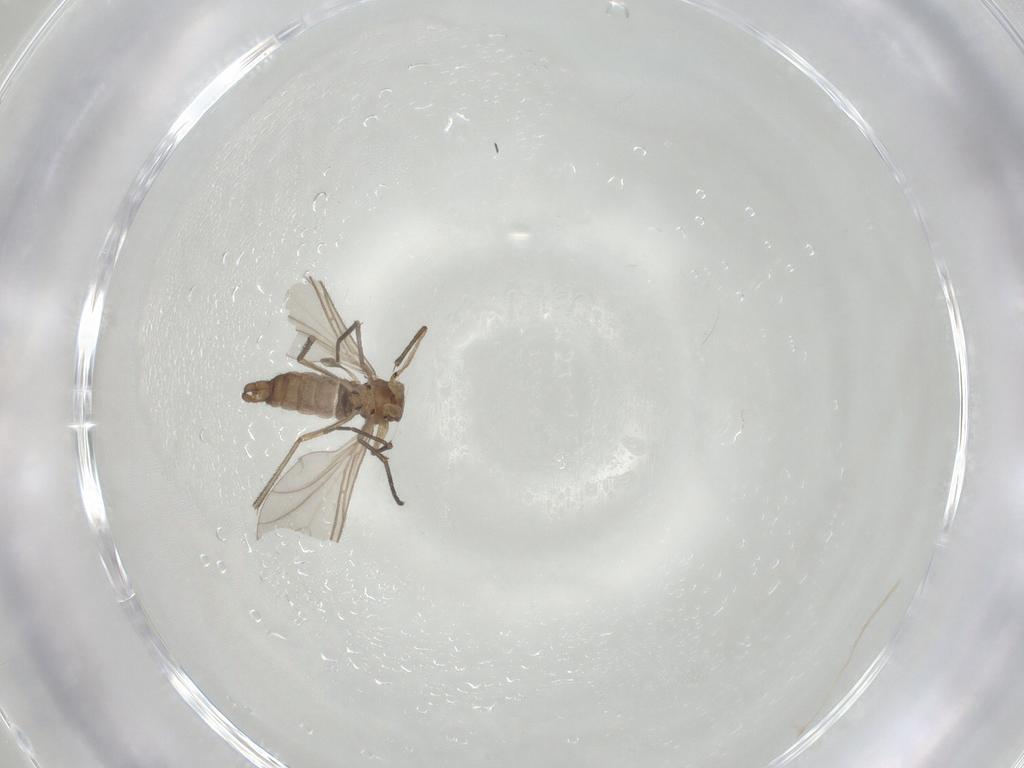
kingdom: Animalia
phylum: Arthropoda
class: Insecta
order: Diptera
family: Sciaridae
